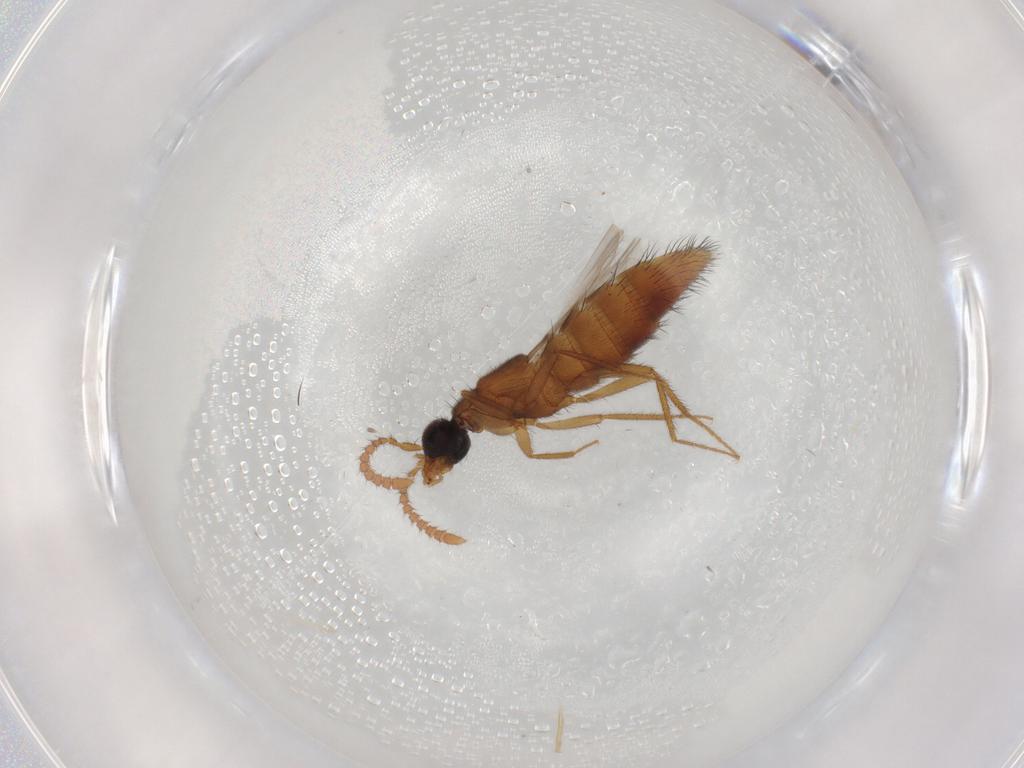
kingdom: Animalia
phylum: Arthropoda
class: Insecta
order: Coleoptera
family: Staphylinidae
